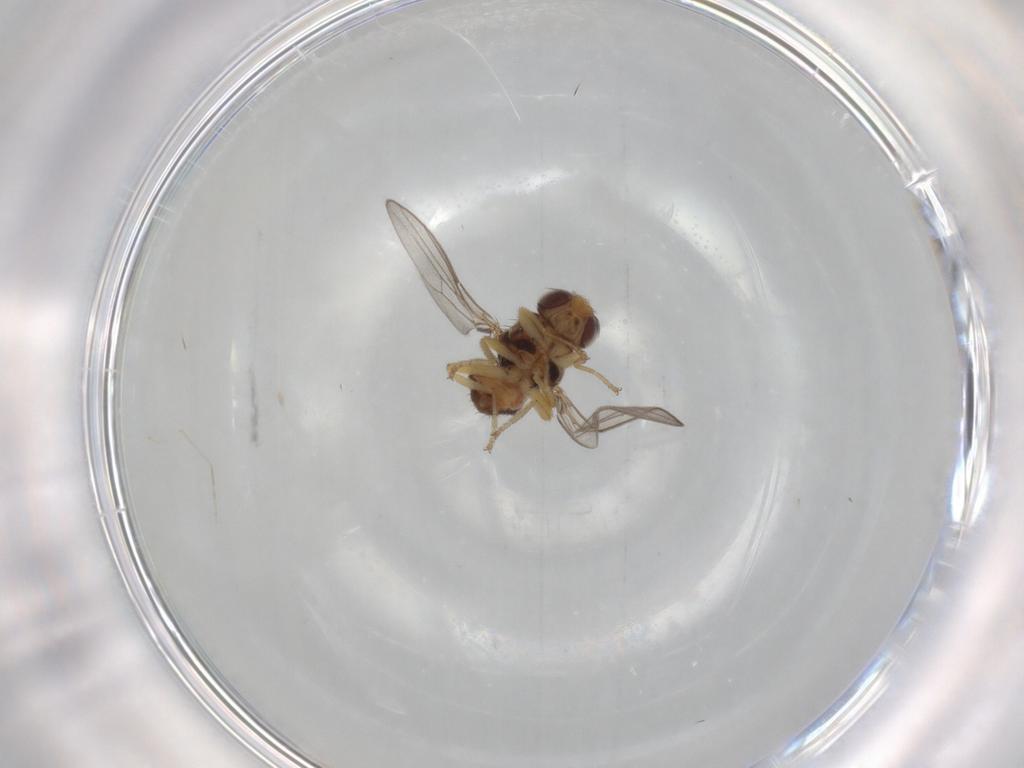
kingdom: Animalia
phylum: Arthropoda
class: Insecta
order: Diptera
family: Chloropidae
